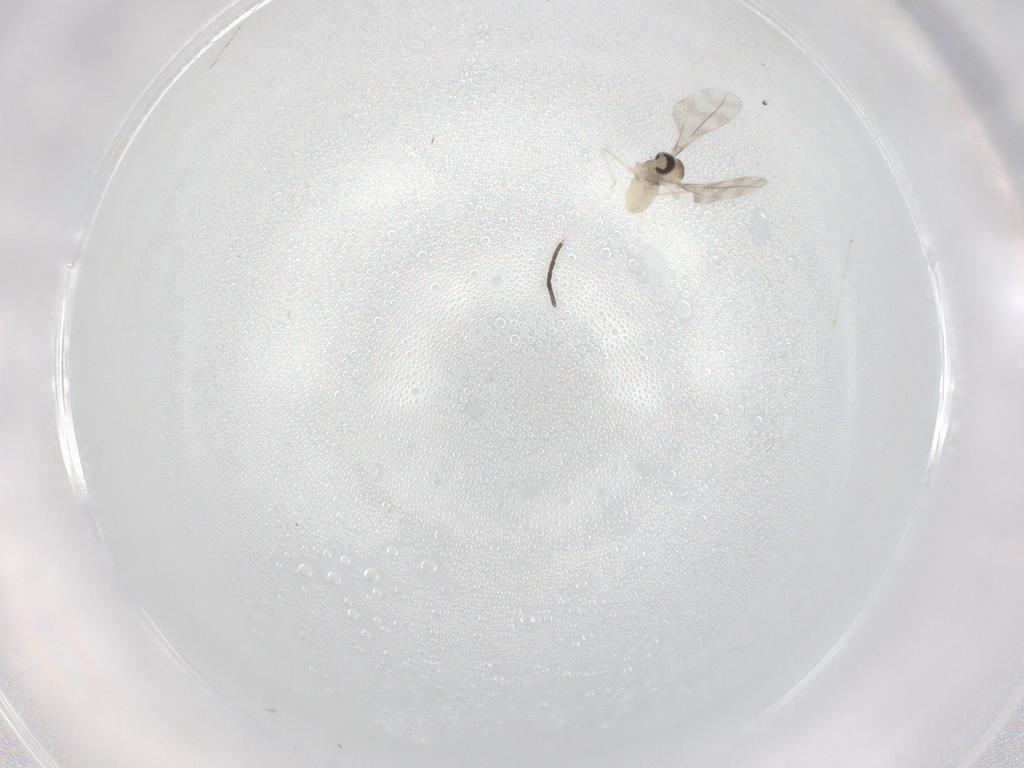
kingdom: Animalia
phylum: Arthropoda
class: Insecta
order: Diptera
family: Cecidomyiidae
